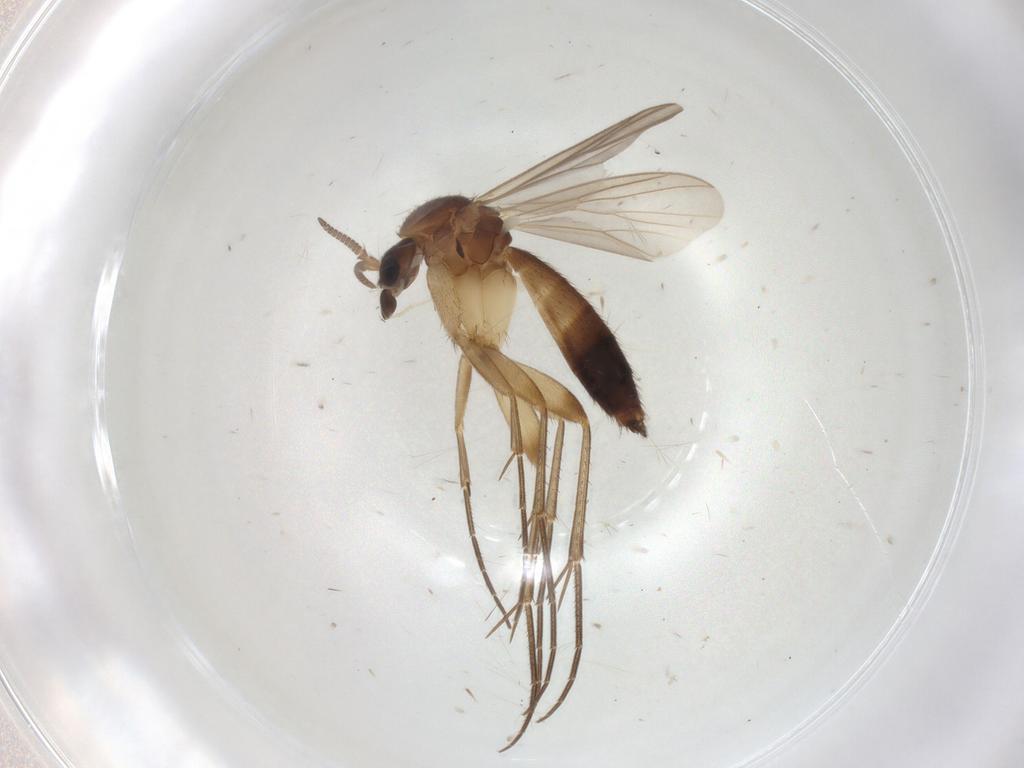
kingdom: Animalia
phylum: Arthropoda
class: Insecta
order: Diptera
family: Mycetophilidae
